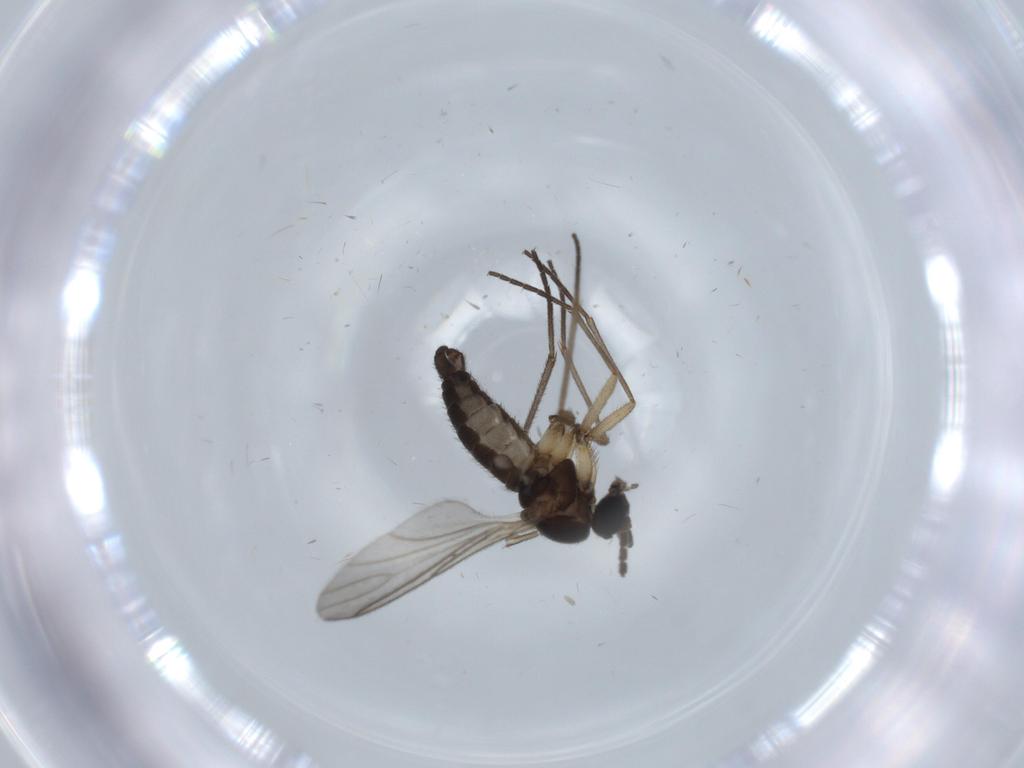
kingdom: Animalia
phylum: Arthropoda
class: Insecta
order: Diptera
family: Sciaridae
